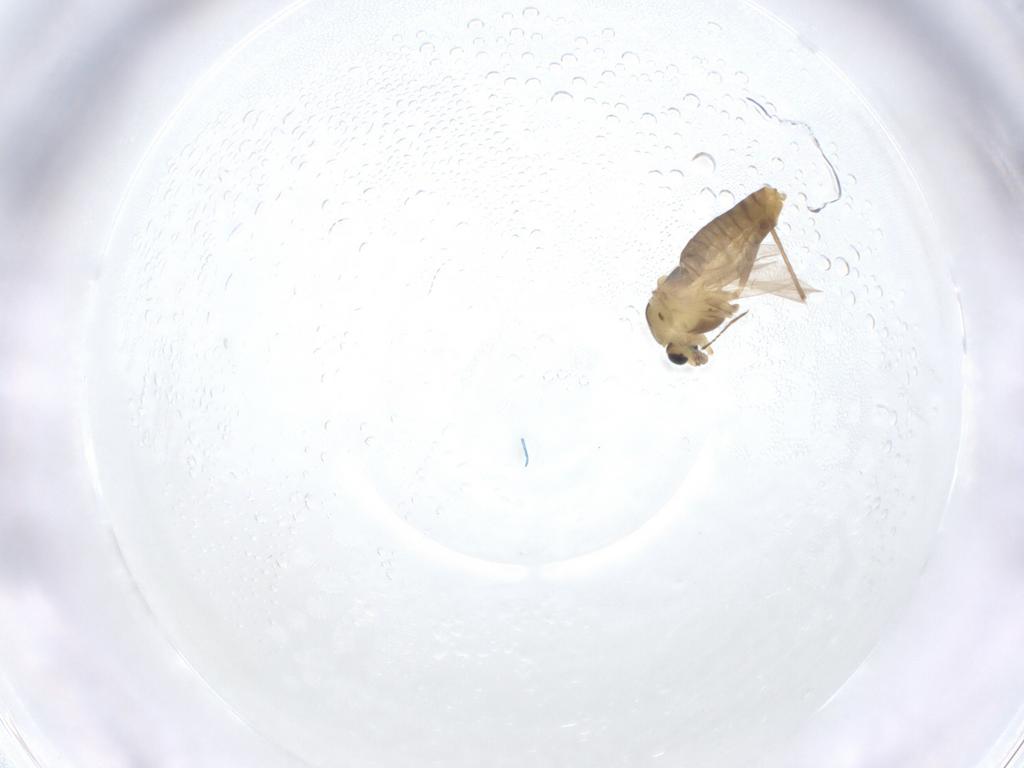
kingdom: Animalia
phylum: Arthropoda
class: Insecta
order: Diptera
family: Chironomidae
